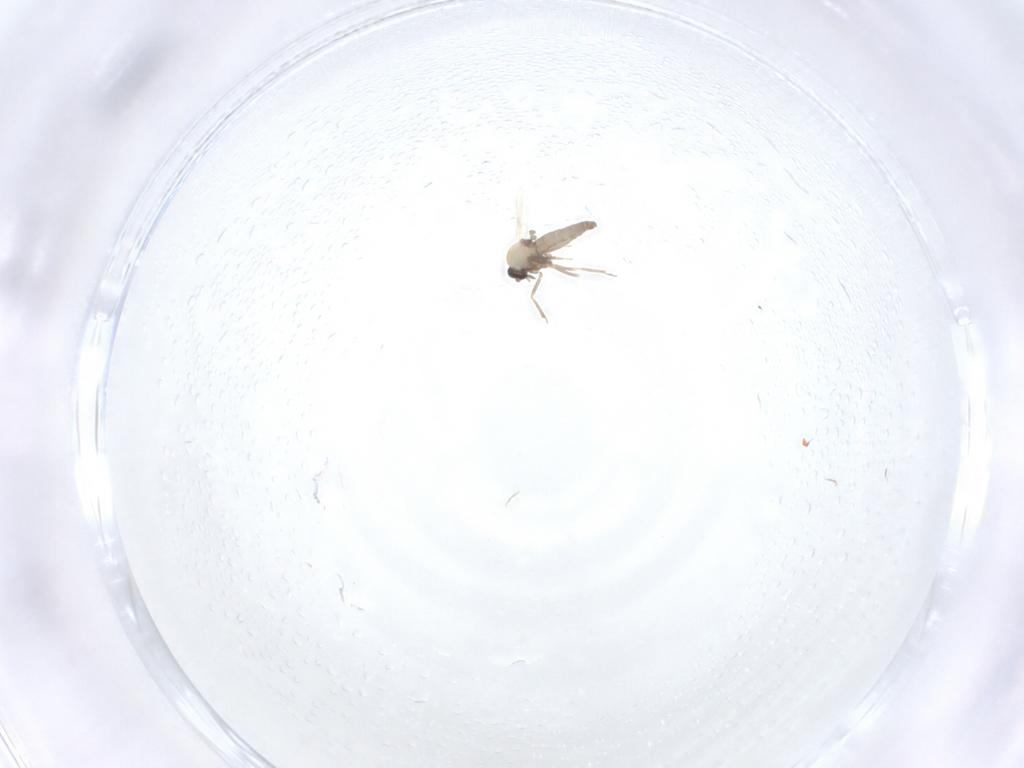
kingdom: Animalia
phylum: Arthropoda
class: Insecta
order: Diptera
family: Ceratopogonidae
